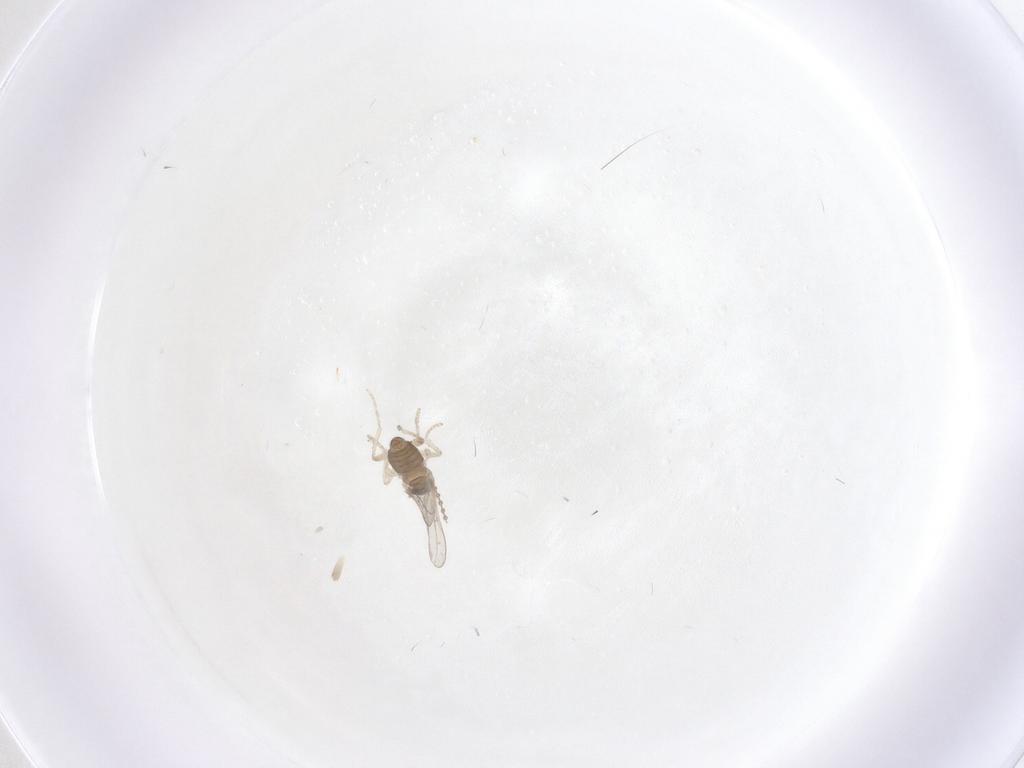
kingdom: Animalia
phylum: Arthropoda
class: Insecta
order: Diptera
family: Cecidomyiidae
